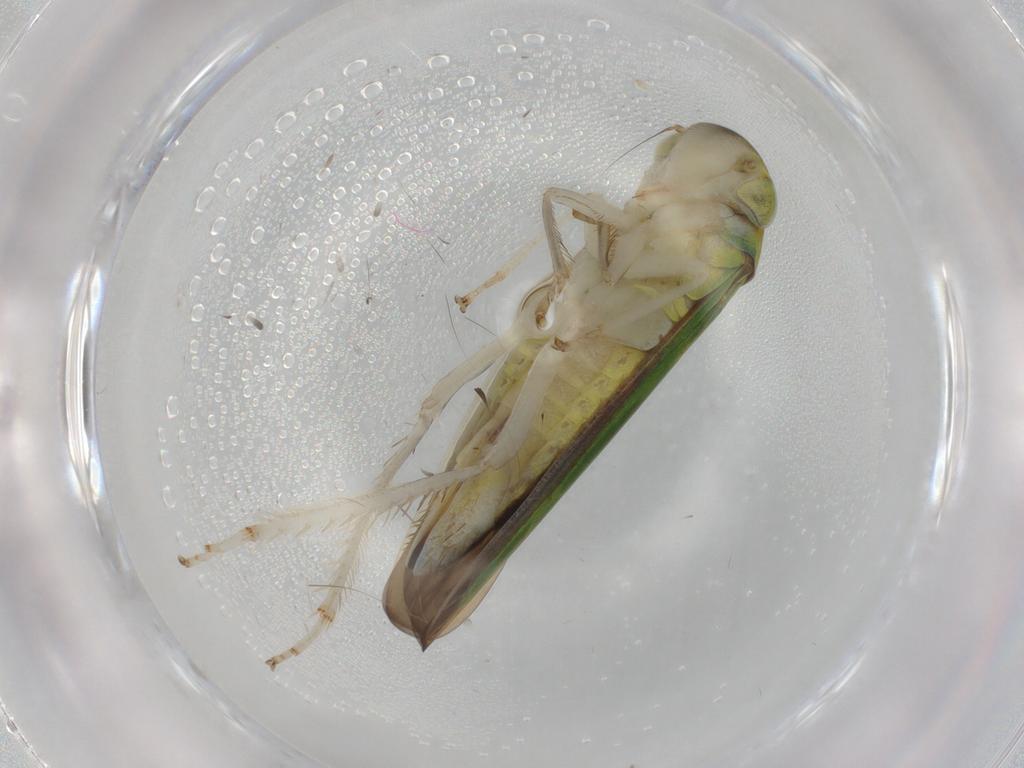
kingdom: Animalia
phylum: Arthropoda
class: Insecta
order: Hemiptera
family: Cicadellidae
